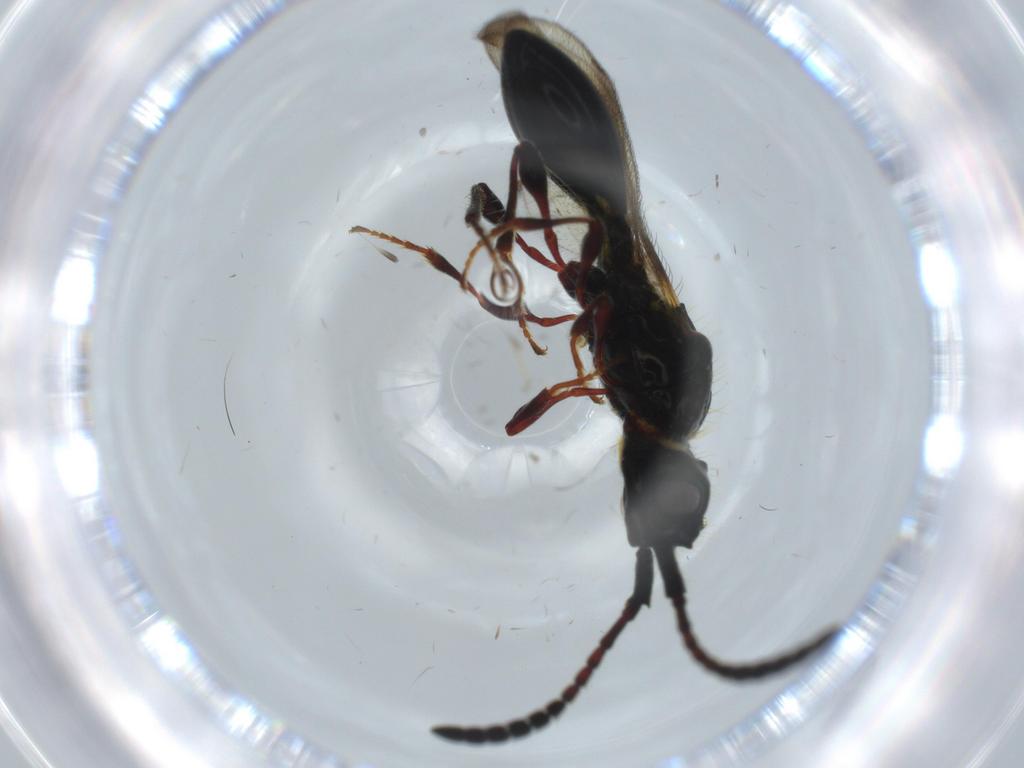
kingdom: Animalia
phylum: Arthropoda
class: Insecta
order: Hymenoptera
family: Diapriidae
